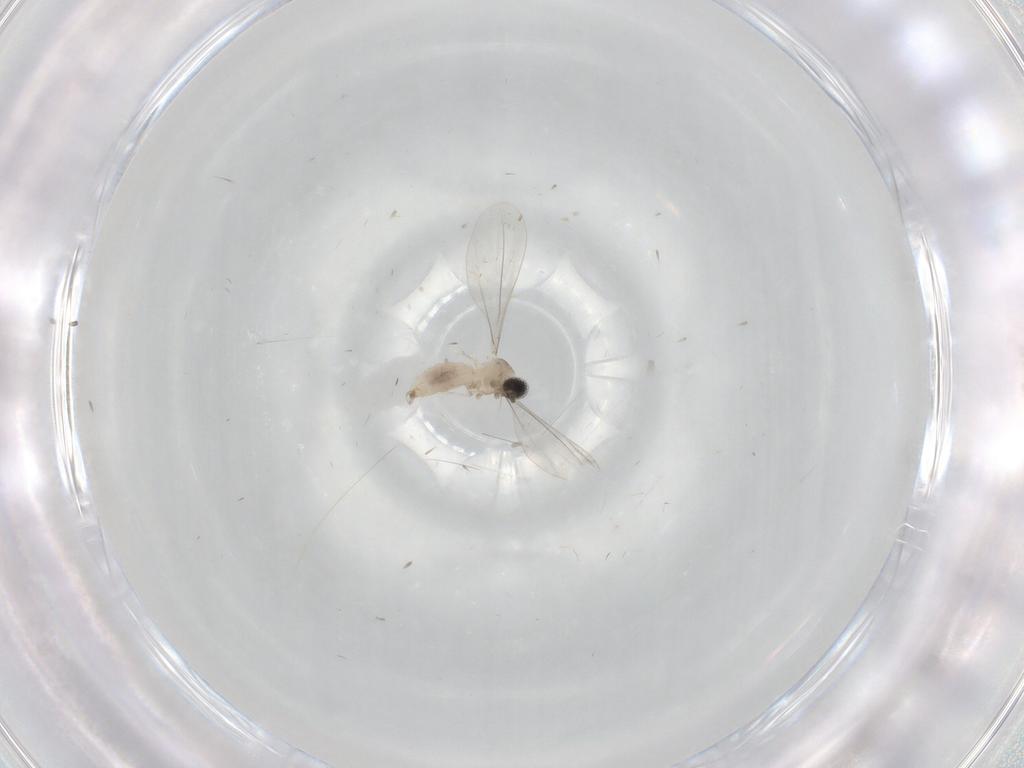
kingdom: Animalia
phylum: Arthropoda
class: Insecta
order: Diptera
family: Cecidomyiidae
